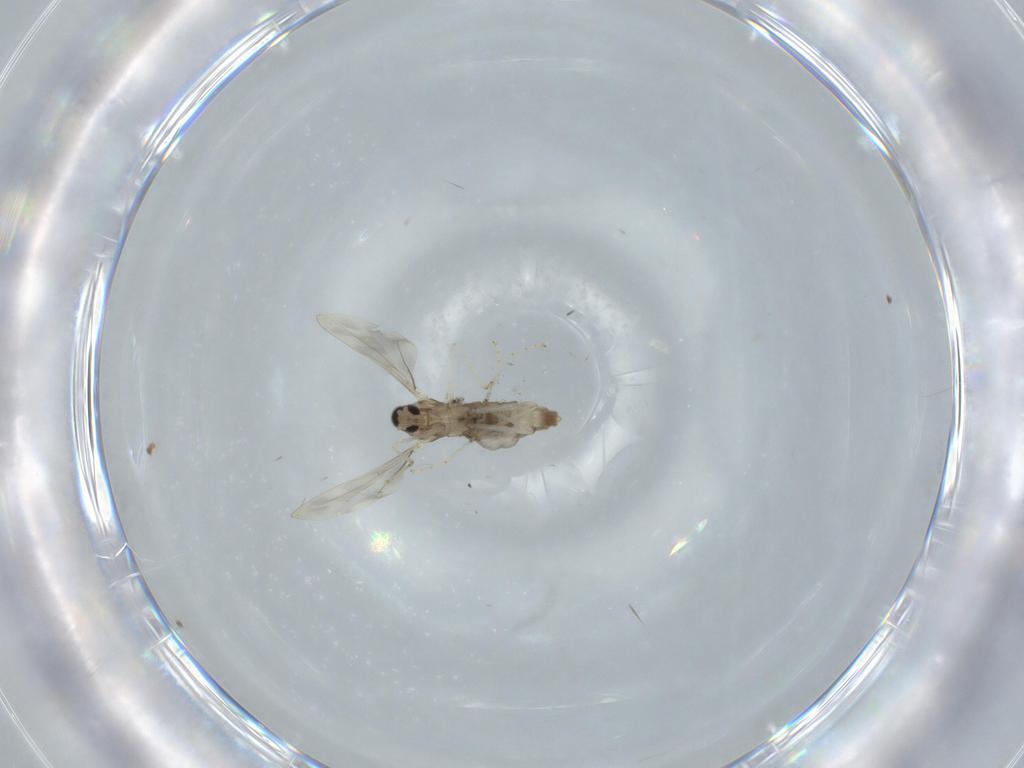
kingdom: Animalia
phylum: Arthropoda
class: Insecta
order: Diptera
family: Cecidomyiidae
